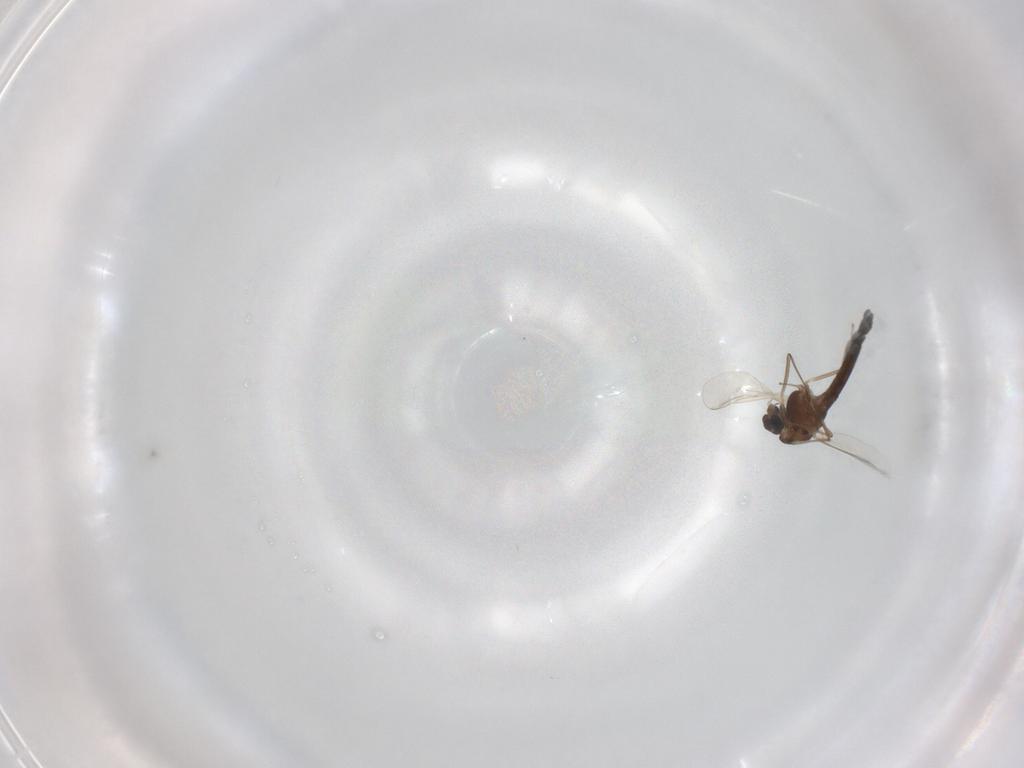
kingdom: Animalia
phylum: Arthropoda
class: Insecta
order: Diptera
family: Cecidomyiidae
